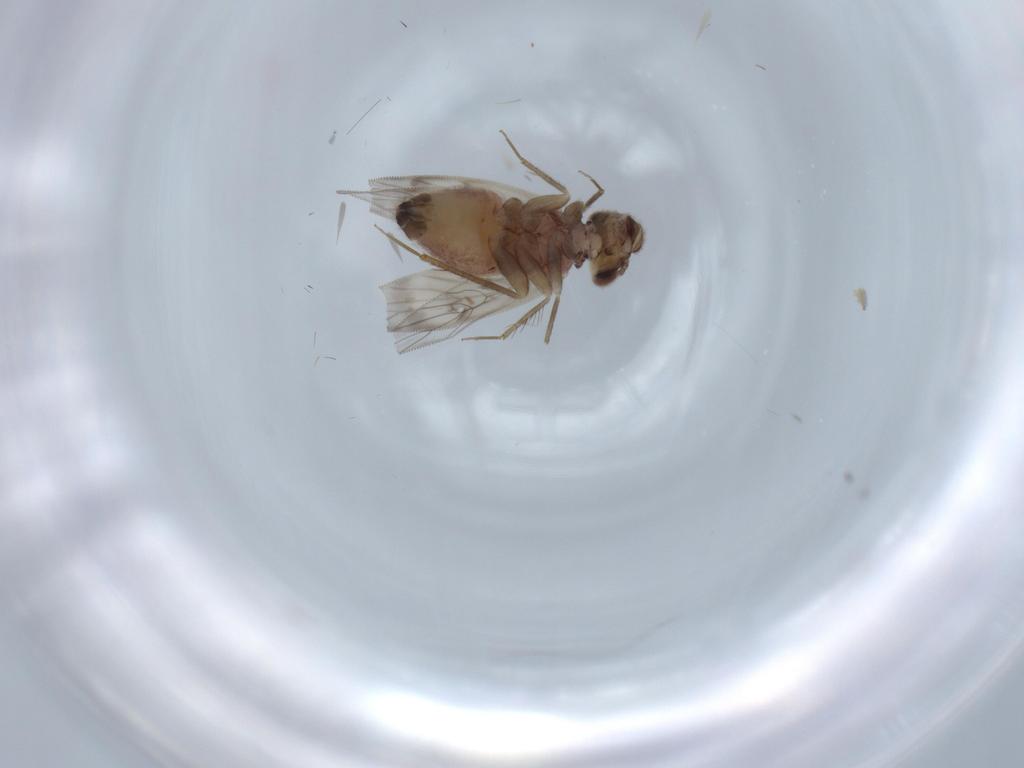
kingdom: Animalia
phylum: Arthropoda
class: Insecta
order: Psocodea
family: Lepidopsocidae
